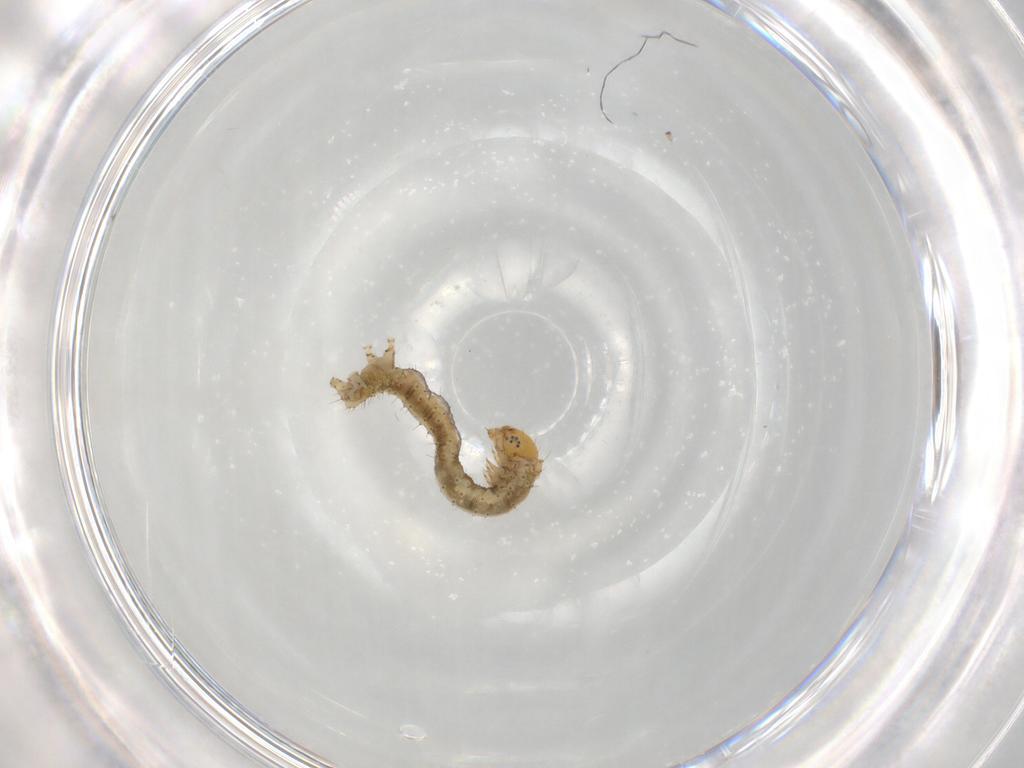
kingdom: Animalia
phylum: Arthropoda
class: Insecta
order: Lepidoptera
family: Geometridae
